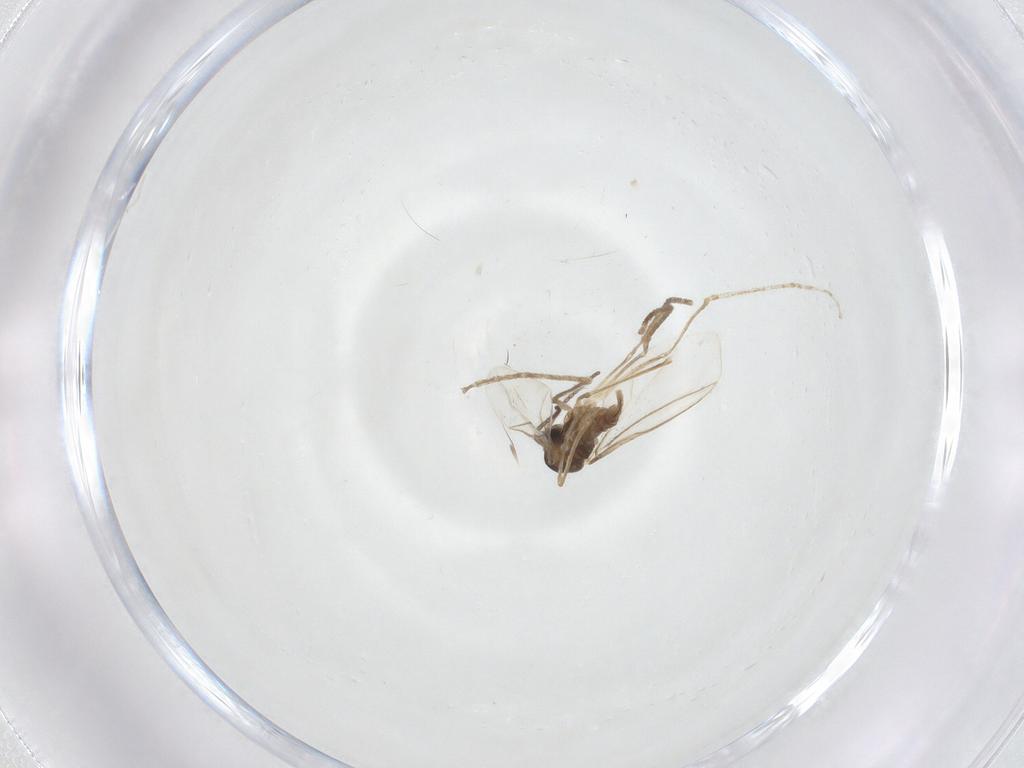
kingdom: Animalia
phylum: Arthropoda
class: Insecta
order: Diptera
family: Cecidomyiidae
